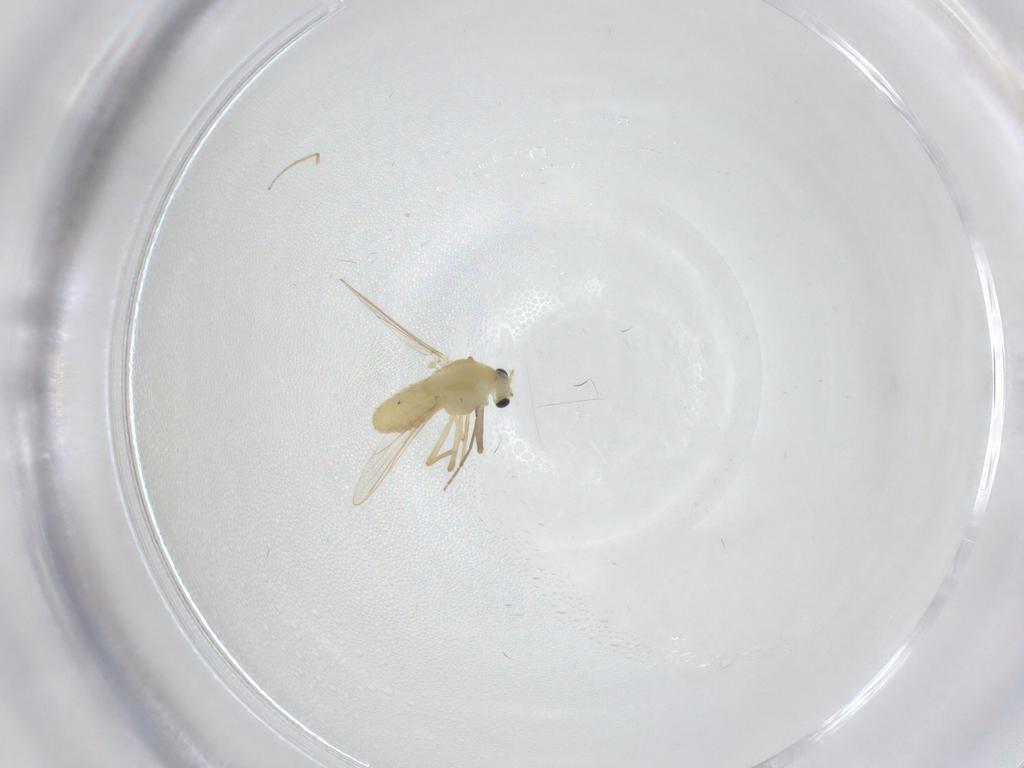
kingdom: Animalia
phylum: Arthropoda
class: Insecta
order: Diptera
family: Chironomidae
